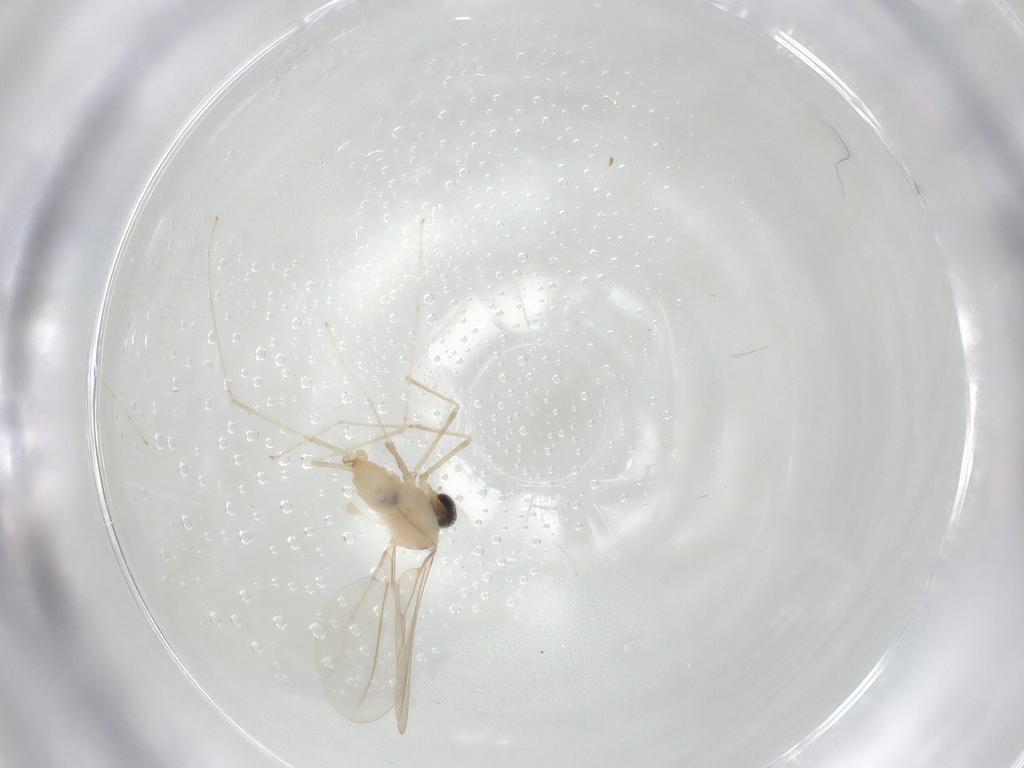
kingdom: Animalia
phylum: Arthropoda
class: Insecta
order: Diptera
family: Cecidomyiidae
